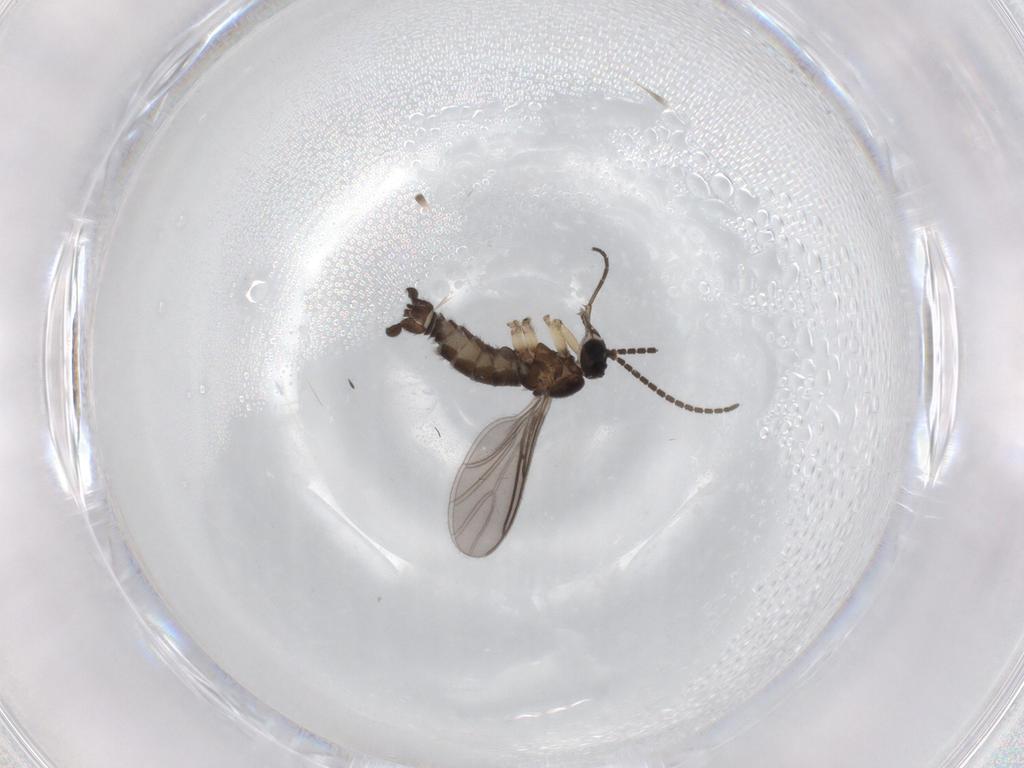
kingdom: Animalia
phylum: Arthropoda
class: Insecta
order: Diptera
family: Sciaridae
